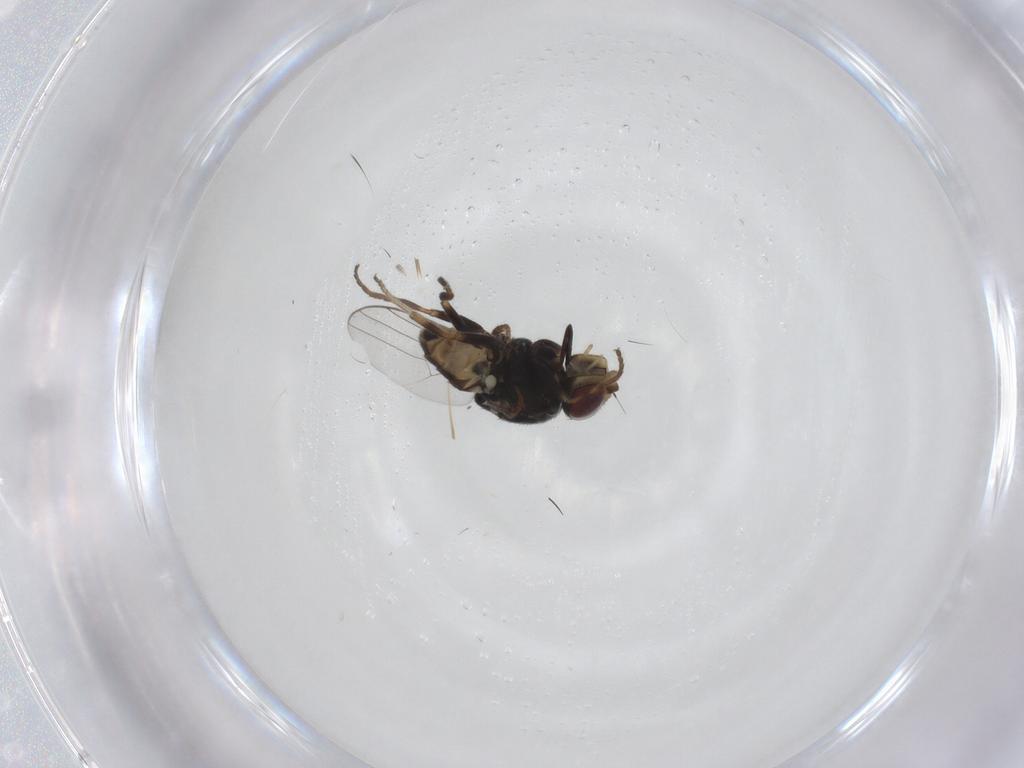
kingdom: Animalia
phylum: Arthropoda
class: Insecta
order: Diptera
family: Chloropidae
